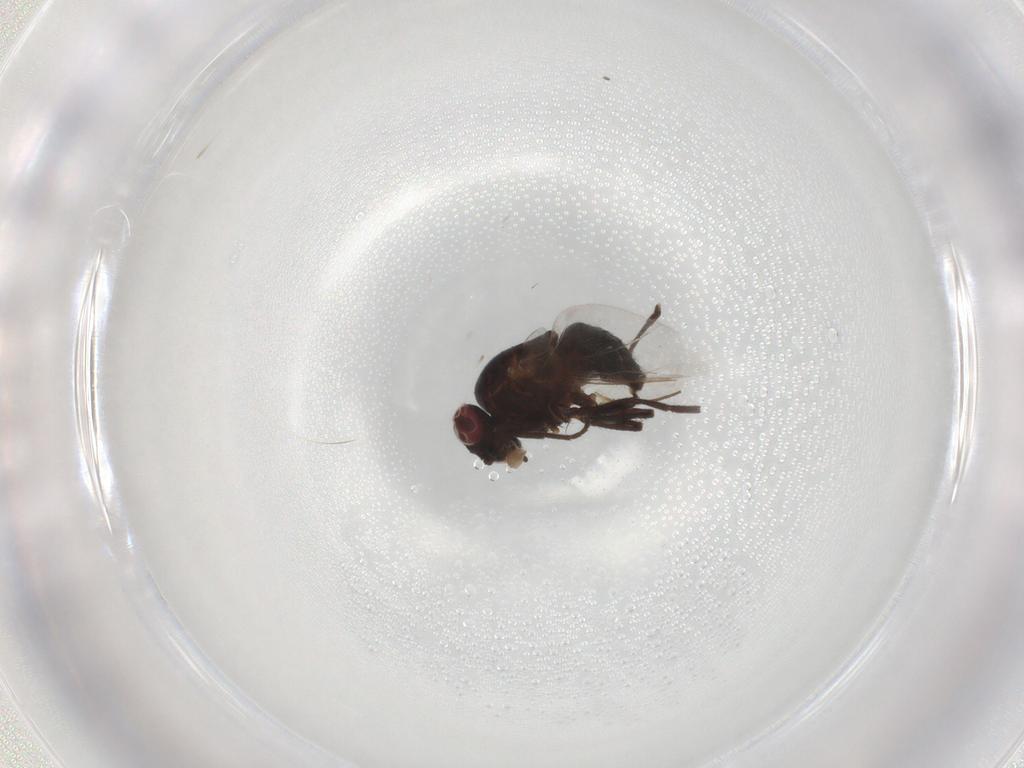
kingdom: Animalia
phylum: Arthropoda
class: Insecta
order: Diptera
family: Agromyzidae
